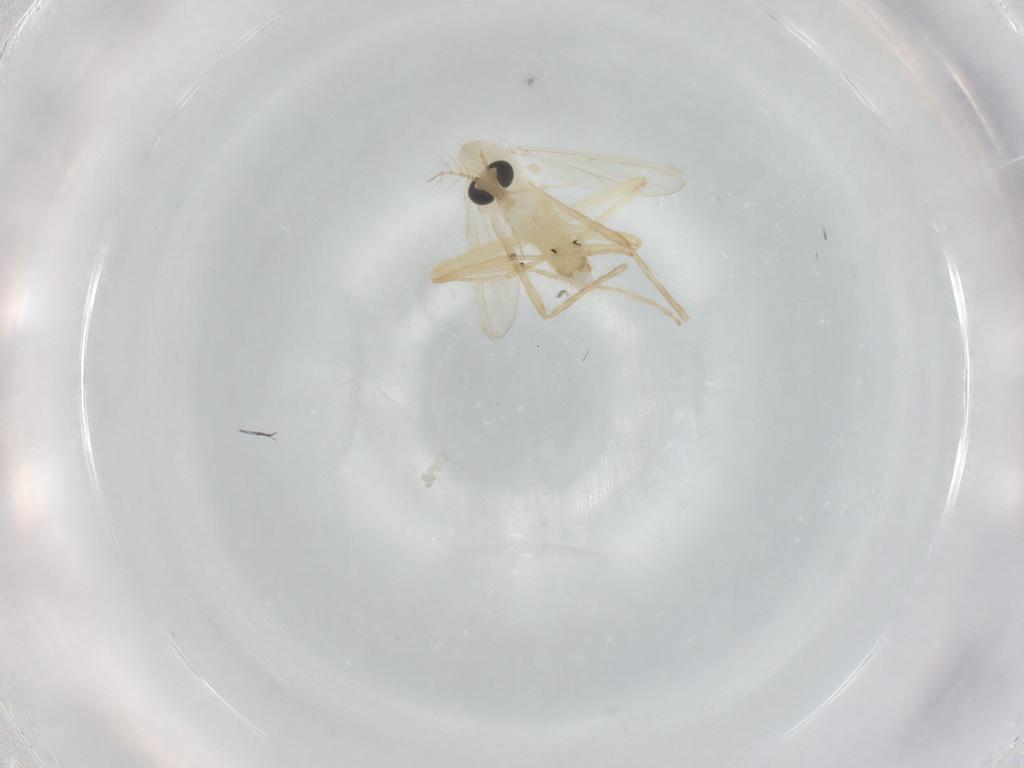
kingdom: Animalia
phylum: Arthropoda
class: Insecta
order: Diptera
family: Chironomidae
